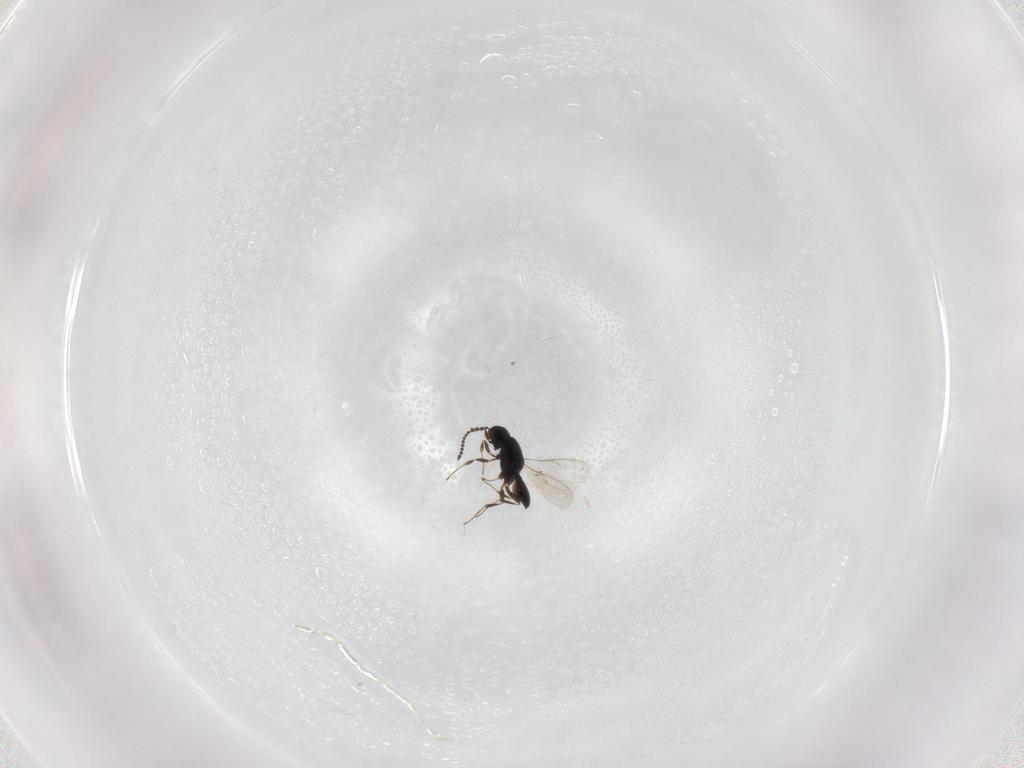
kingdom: Animalia
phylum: Arthropoda
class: Insecta
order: Hymenoptera
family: Scelionidae
